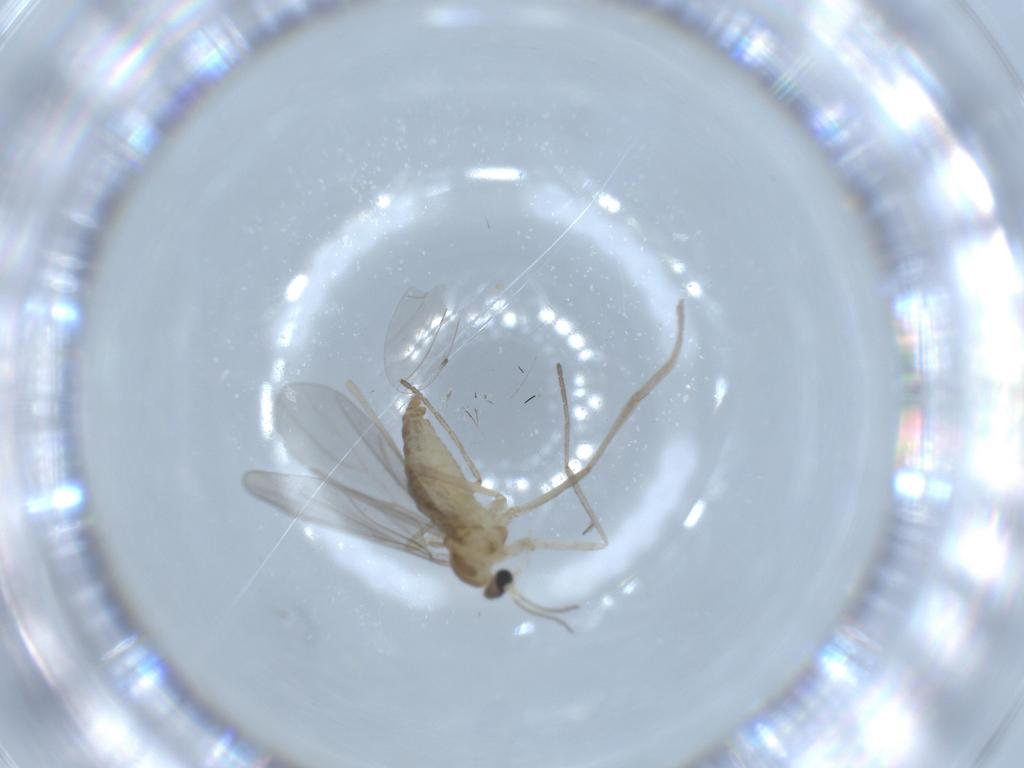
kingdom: Animalia
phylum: Arthropoda
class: Insecta
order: Diptera
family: Cecidomyiidae
